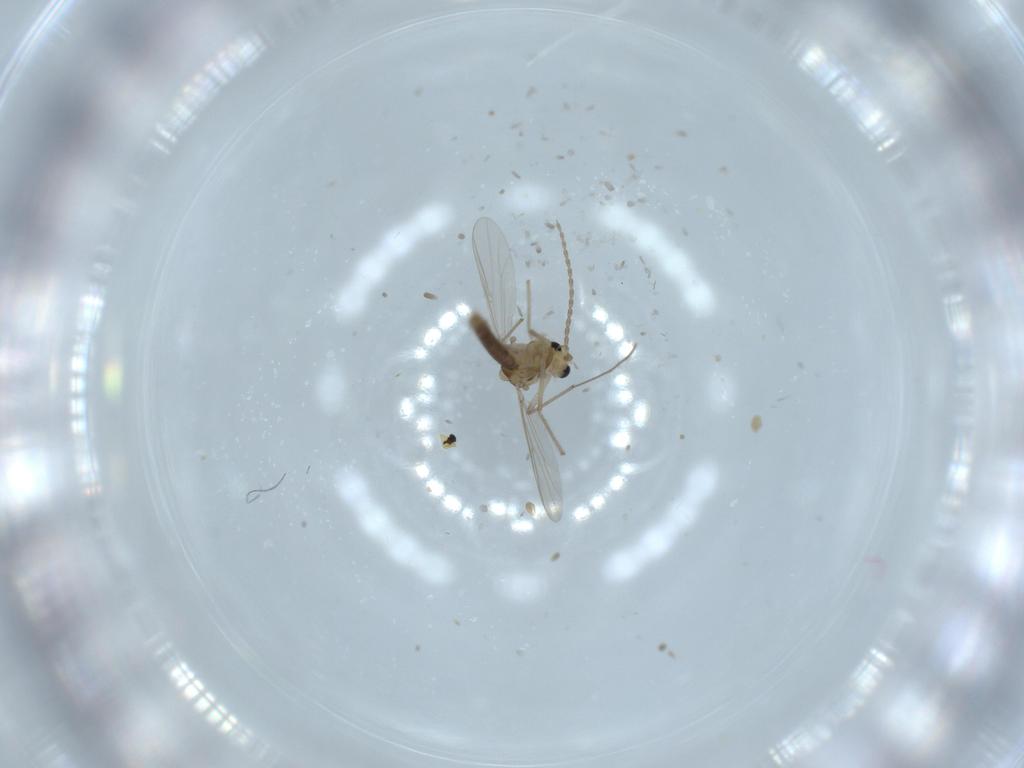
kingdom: Animalia
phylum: Arthropoda
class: Insecta
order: Diptera
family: Chironomidae
